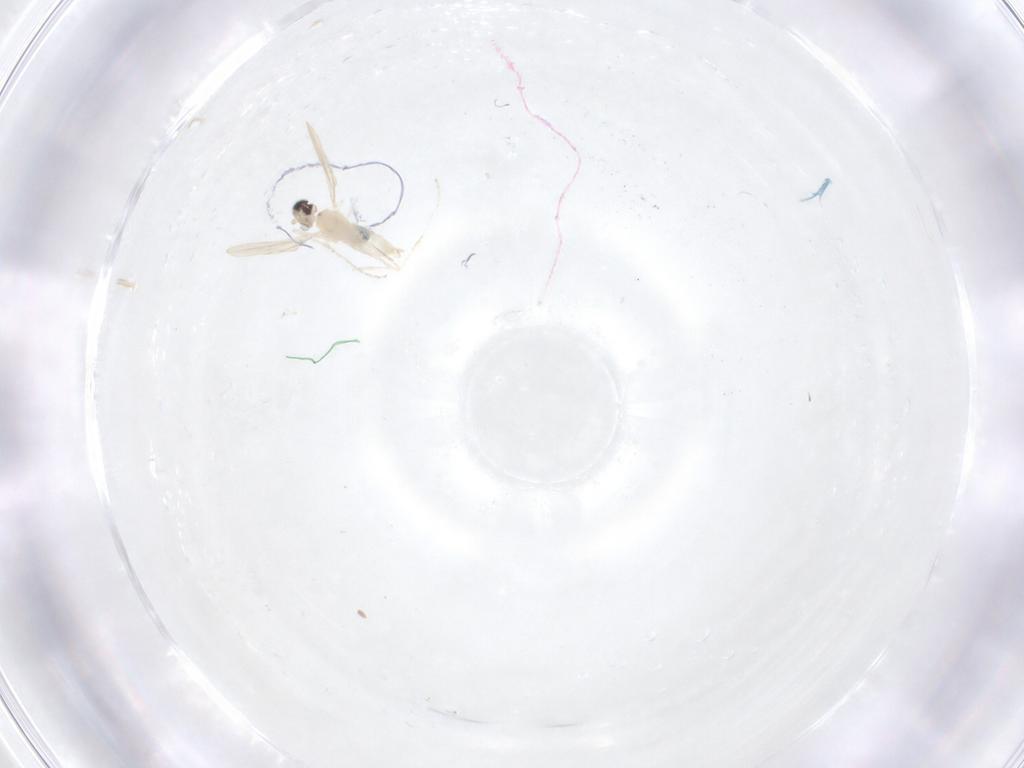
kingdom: Animalia
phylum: Arthropoda
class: Insecta
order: Diptera
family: Cecidomyiidae
